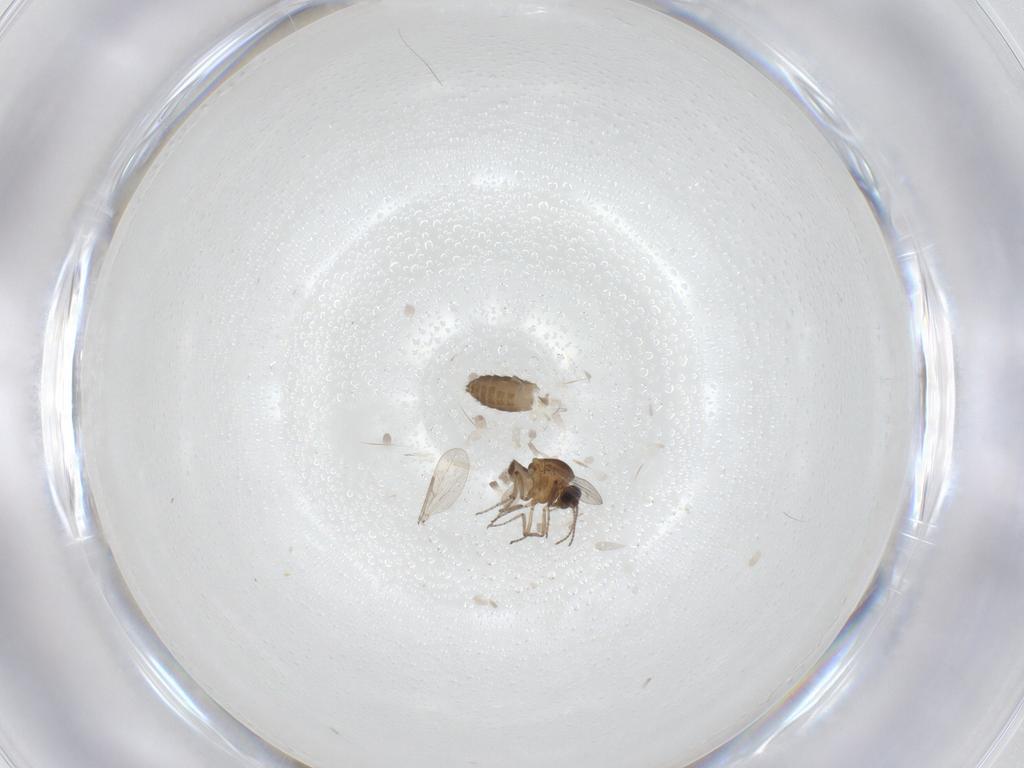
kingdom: Animalia
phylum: Arthropoda
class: Insecta
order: Diptera
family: Ceratopogonidae
